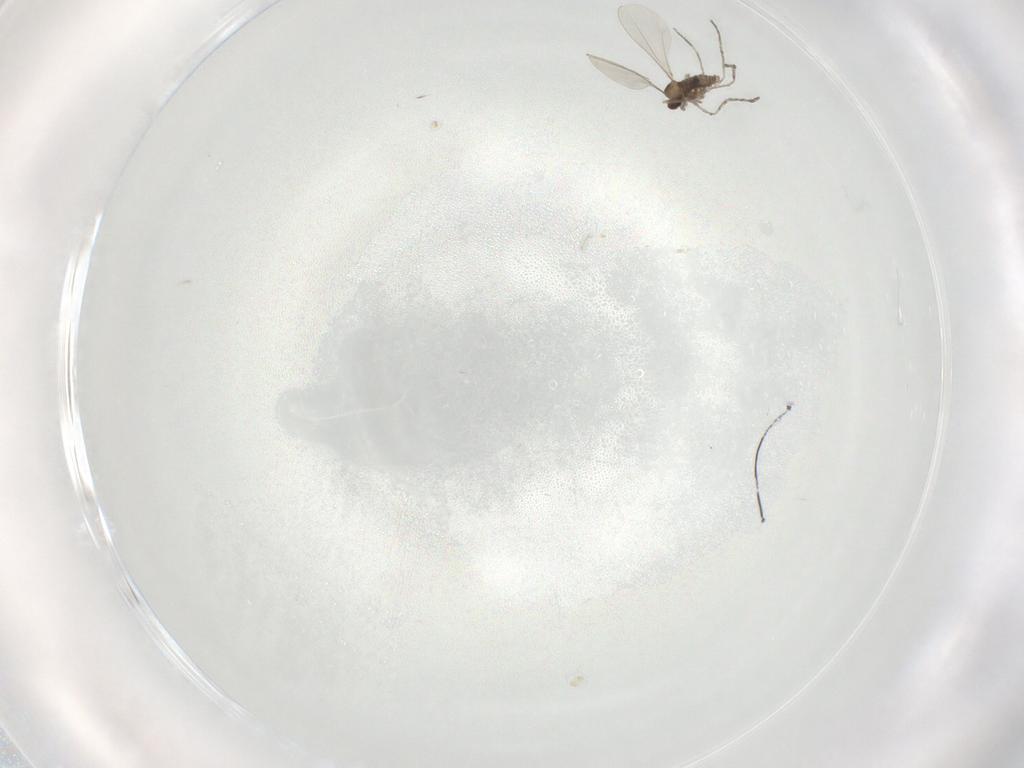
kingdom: Animalia
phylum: Arthropoda
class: Insecta
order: Diptera
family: Cecidomyiidae
